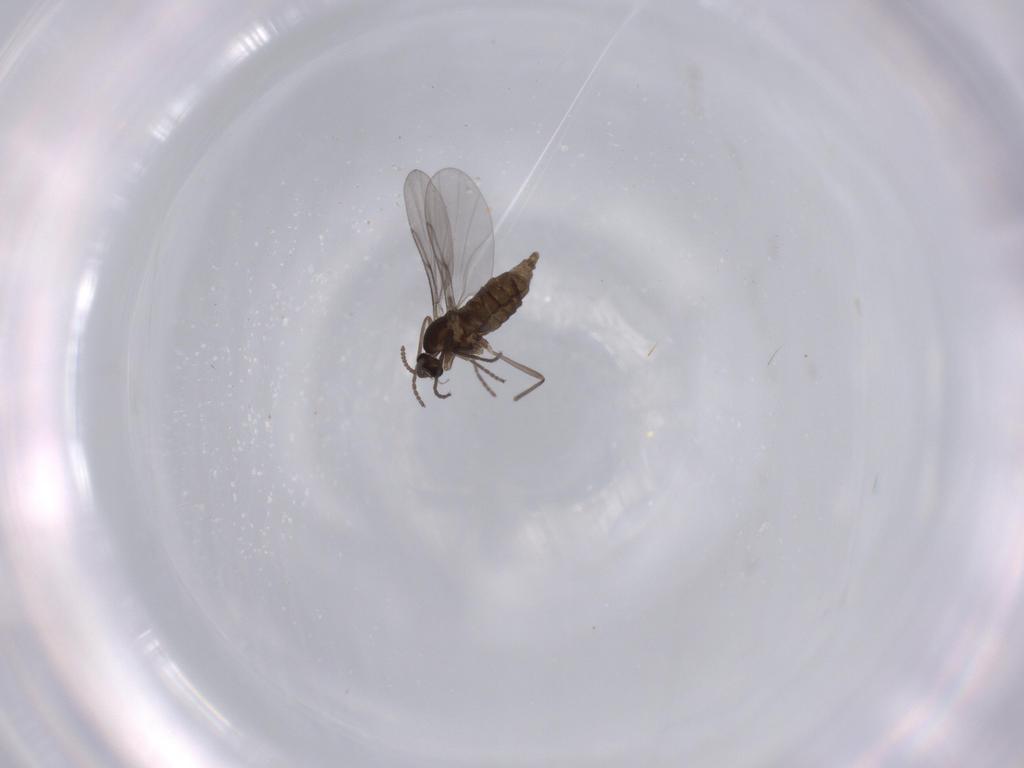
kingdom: Animalia
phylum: Arthropoda
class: Insecta
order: Diptera
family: Cecidomyiidae
